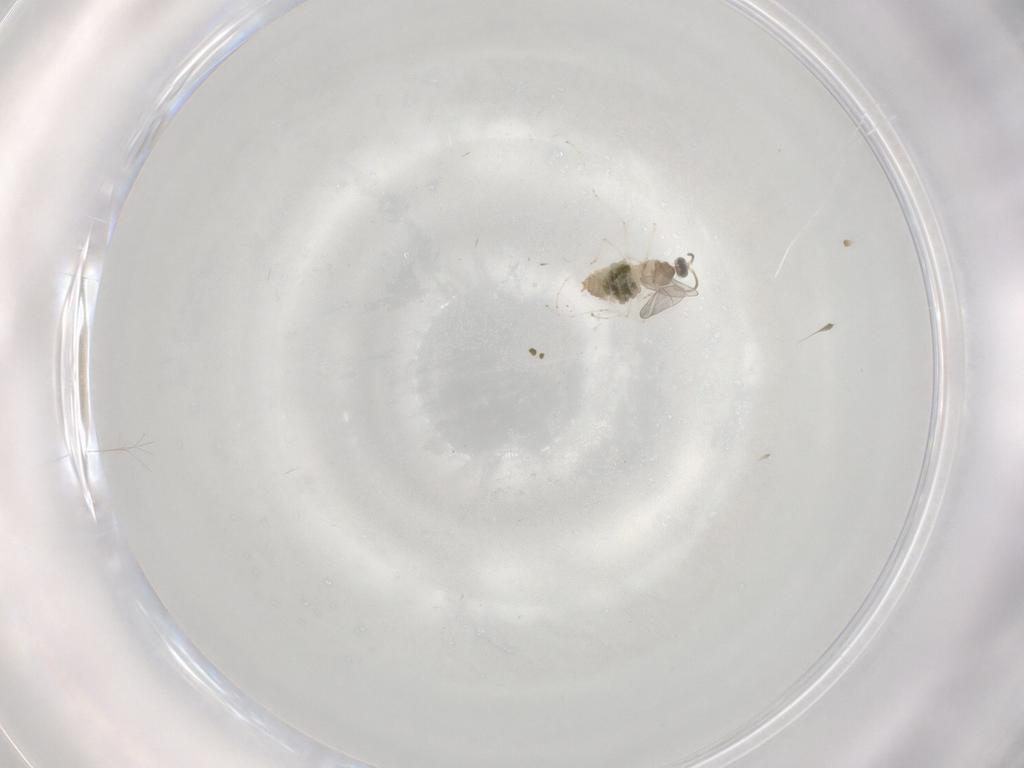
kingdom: Animalia
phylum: Arthropoda
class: Insecta
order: Diptera
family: Cecidomyiidae
